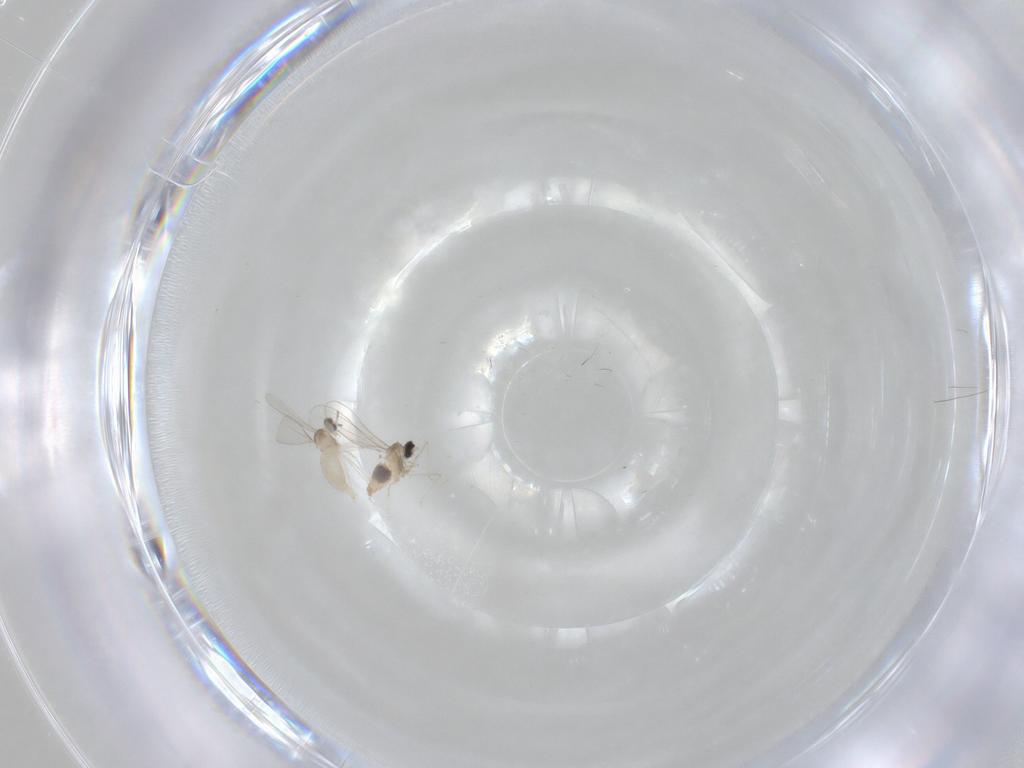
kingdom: Animalia
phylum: Arthropoda
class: Insecta
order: Diptera
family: Cecidomyiidae
